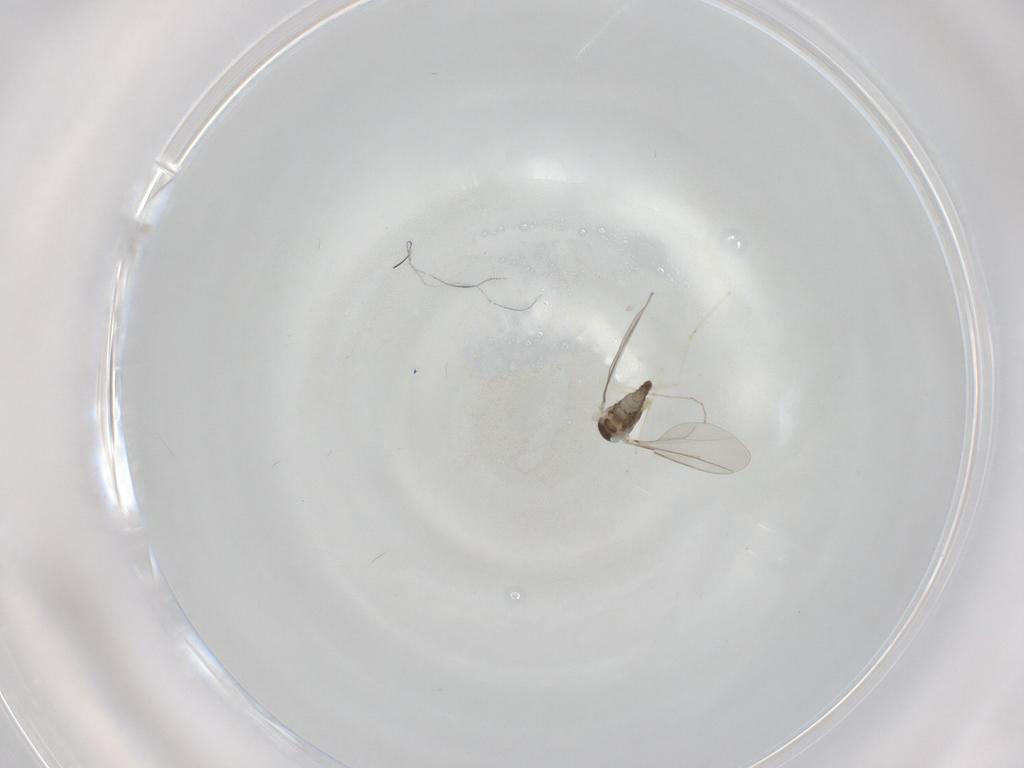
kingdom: Animalia
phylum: Arthropoda
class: Insecta
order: Diptera
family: Cecidomyiidae
